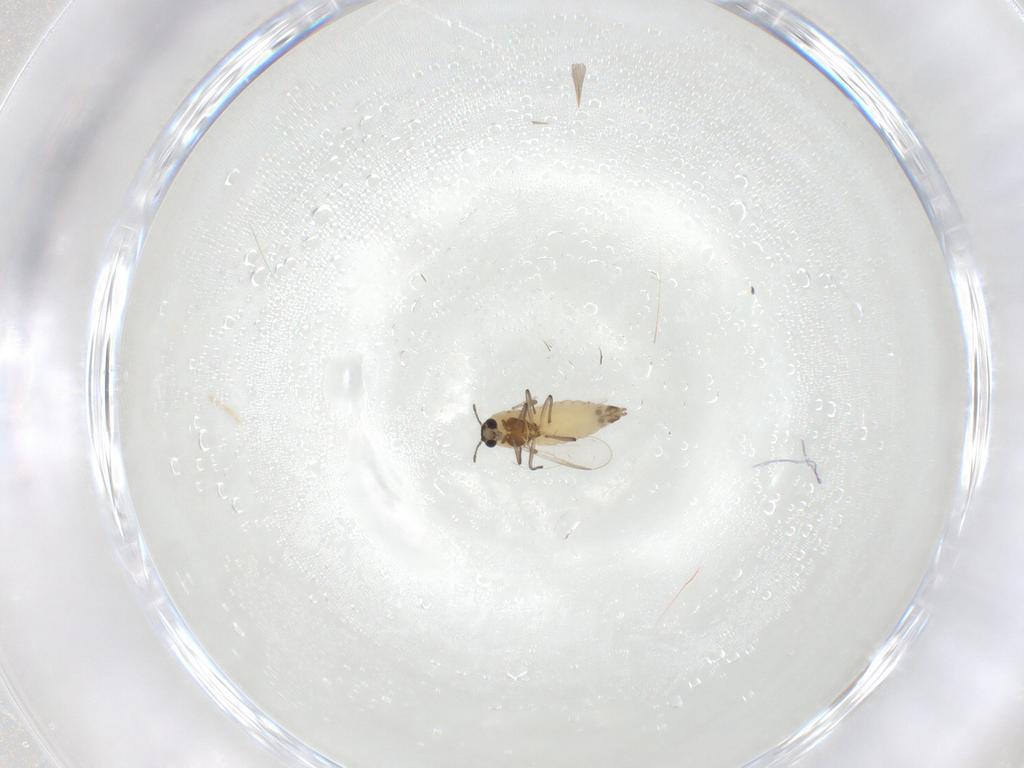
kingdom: Animalia
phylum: Arthropoda
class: Insecta
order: Diptera
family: Chironomidae
